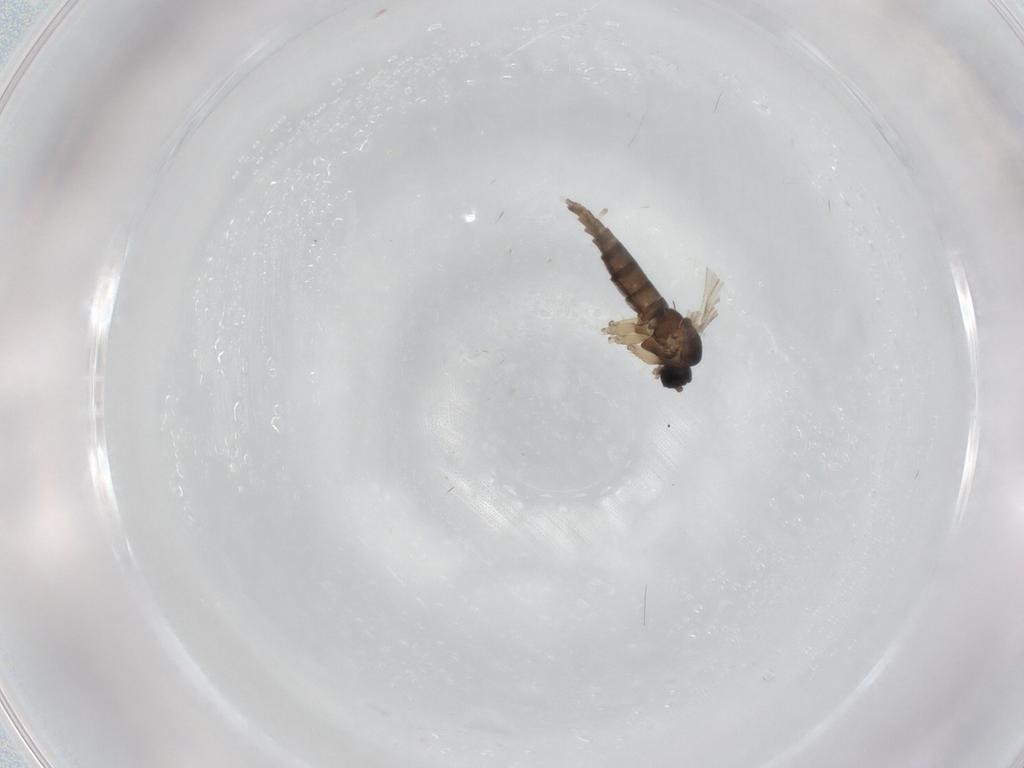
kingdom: Animalia
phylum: Arthropoda
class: Insecta
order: Diptera
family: Sciaridae
